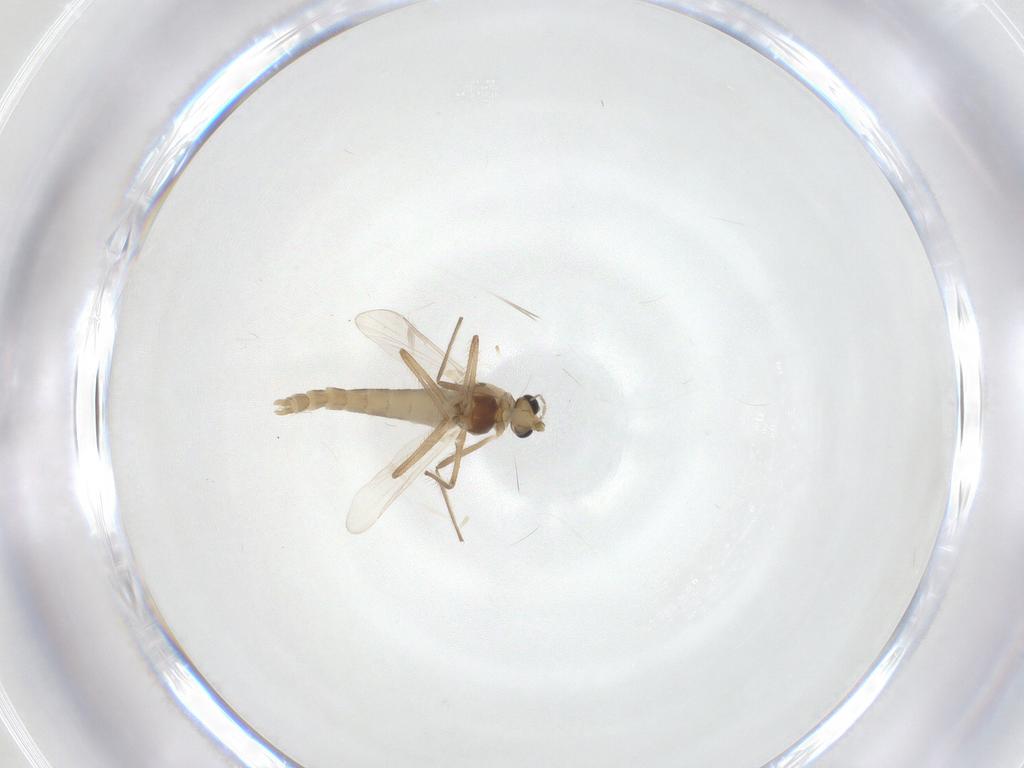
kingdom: Animalia
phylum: Arthropoda
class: Insecta
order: Diptera
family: Chironomidae
